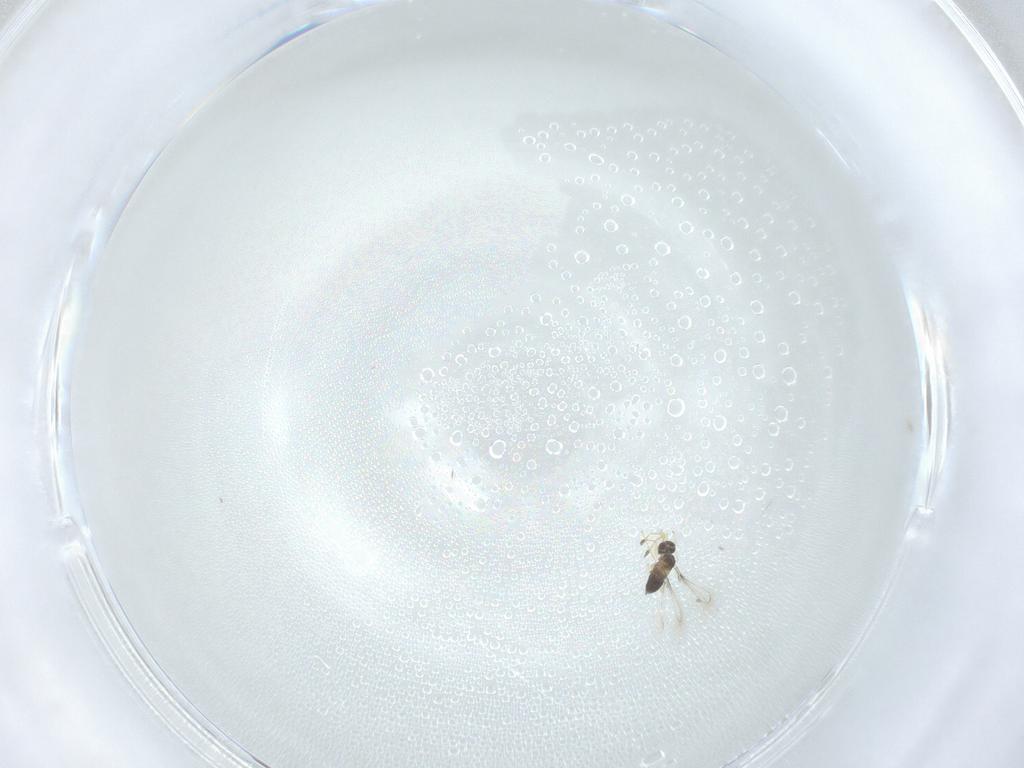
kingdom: Animalia
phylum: Arthropoda
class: Insecta
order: Hymenoptera
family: Mymaridae
